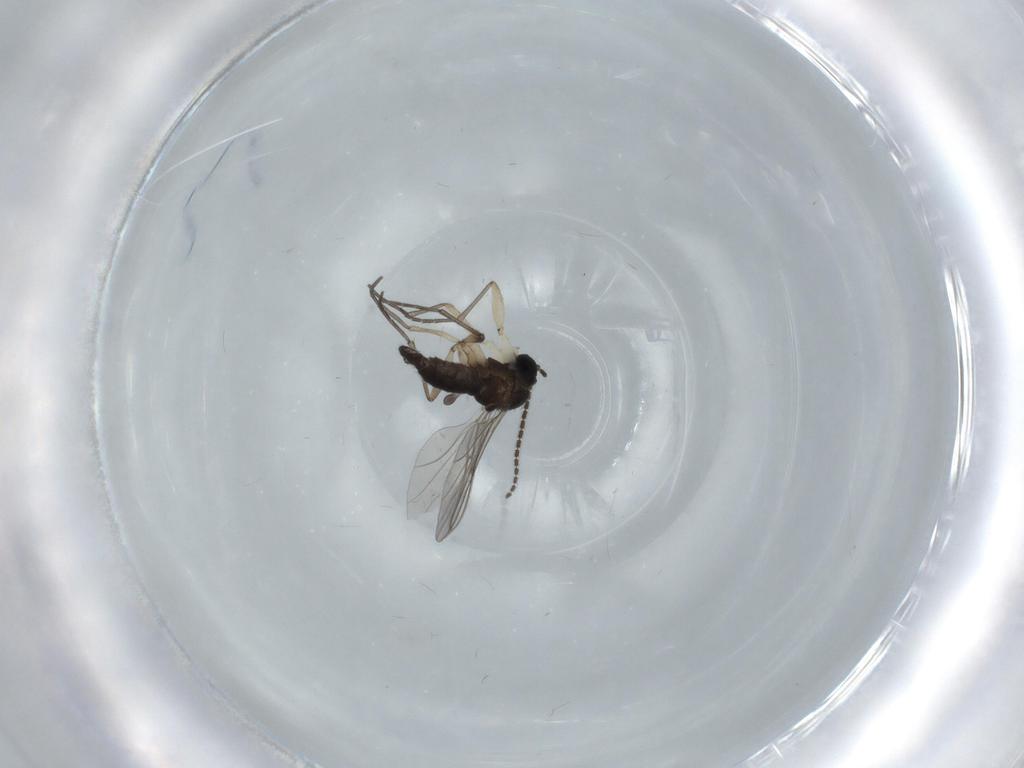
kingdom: Animalia
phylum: Arthropoda
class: Insecta
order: Diptera
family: Sciaridae
